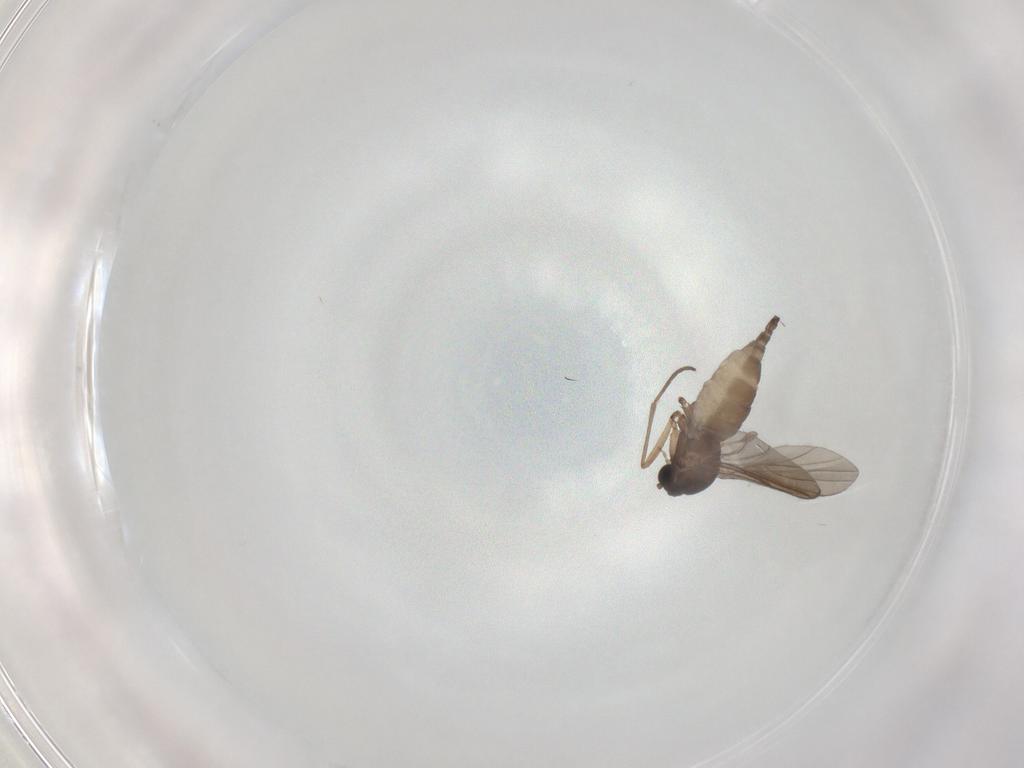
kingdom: Animalia
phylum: Arthropoda
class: Insecta
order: Diptera
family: Sciaridae
